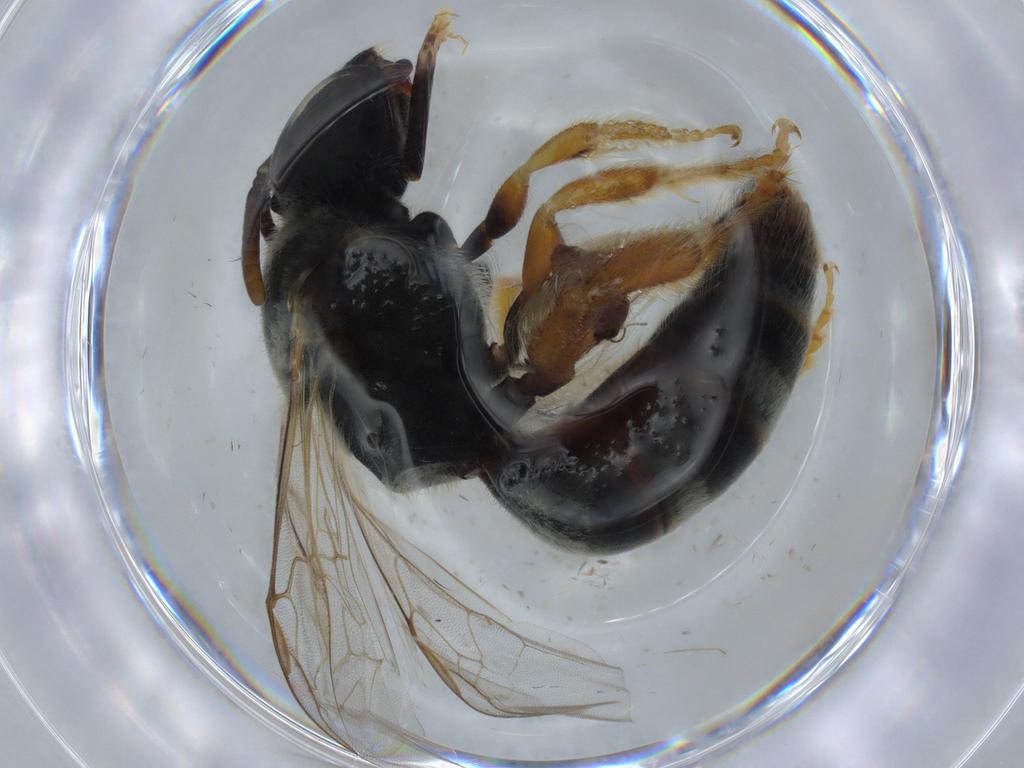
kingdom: Animalia
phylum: Arthropoda
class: Insecta
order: Hymenoptera
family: Halictidae
